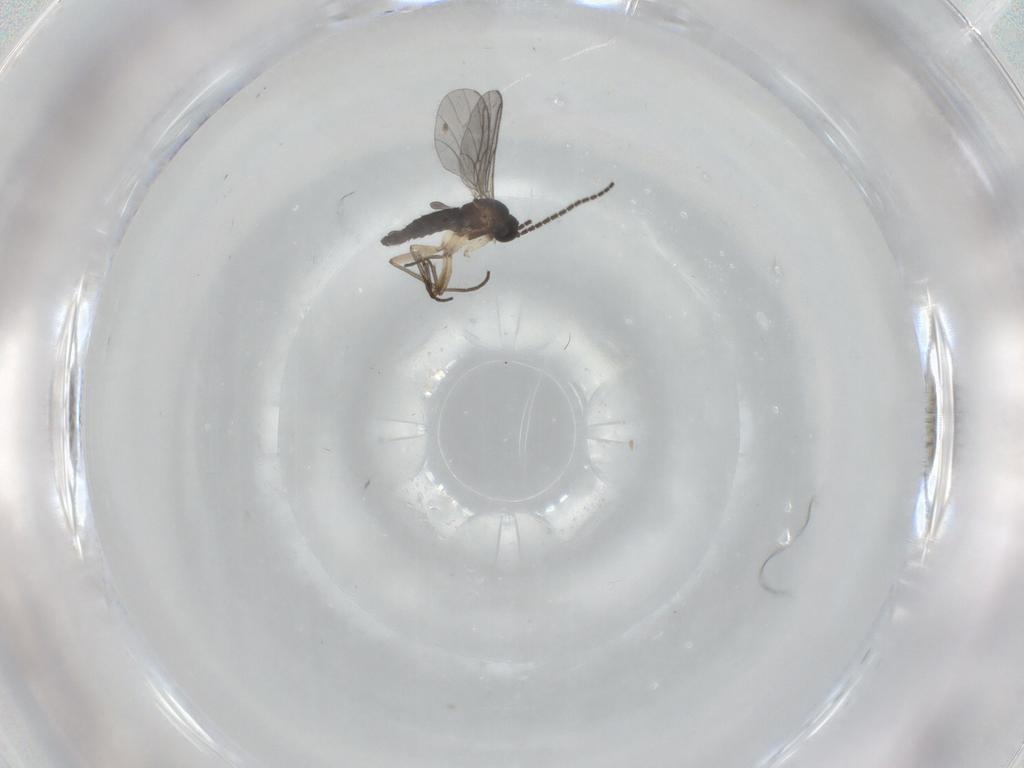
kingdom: Animalia
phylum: Arthropoda
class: Insecta
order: Diptera
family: Sciaridae
